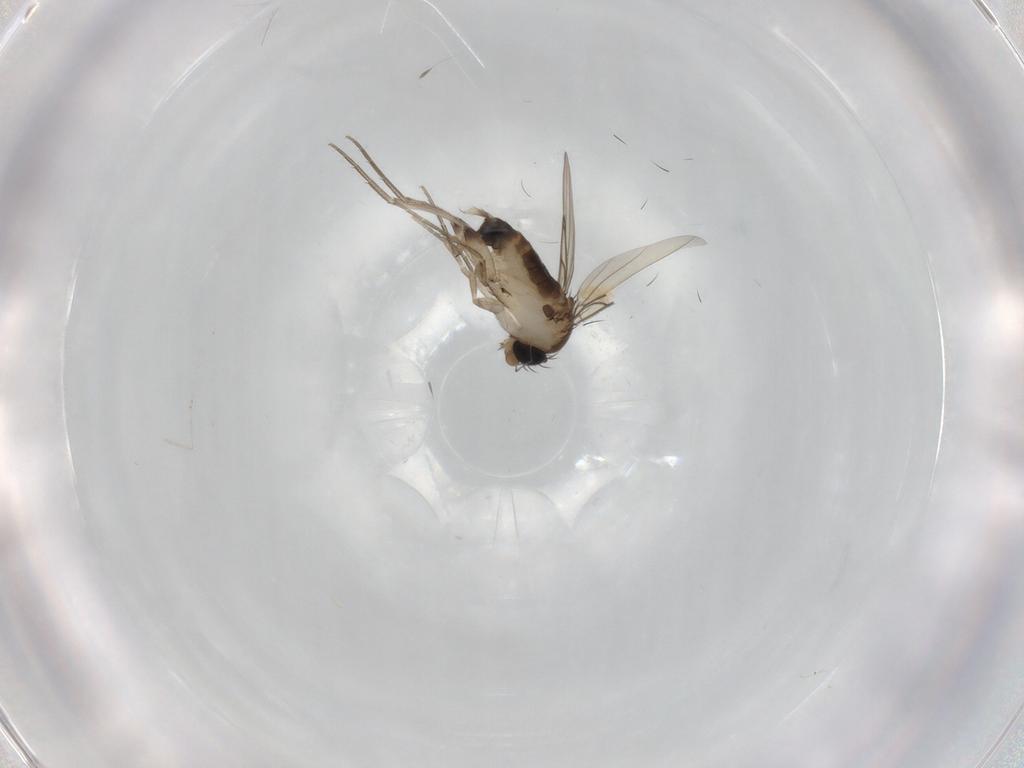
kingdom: Animalia
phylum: Arthropoda
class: Insecta
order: Diptera
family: Phoridae
